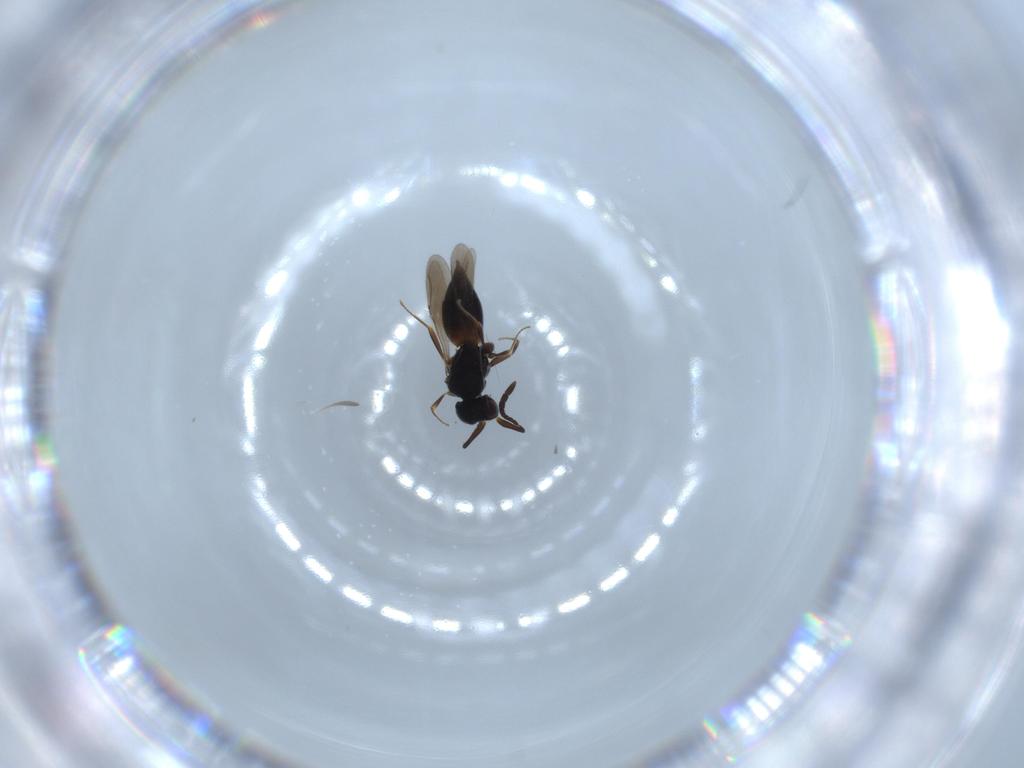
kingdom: Animalia
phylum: Arthropoda
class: Insecta
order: Hymenoptera
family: Ceraphronidae
